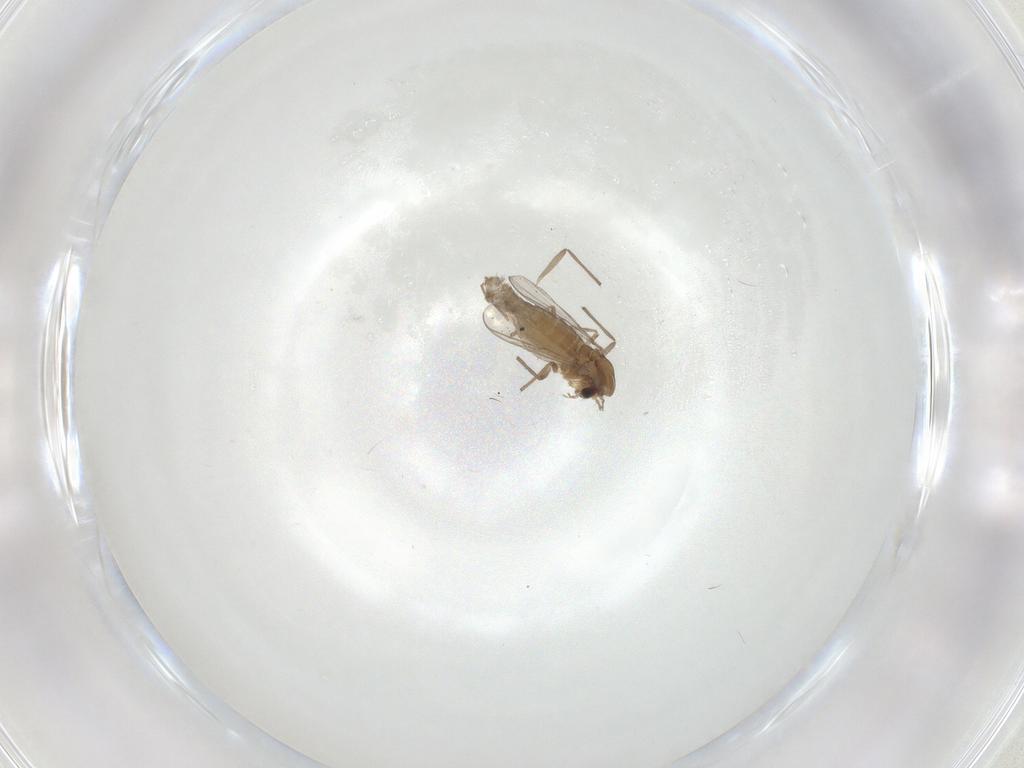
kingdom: Animalia
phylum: Arthropoda
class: Insecta
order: Diptera
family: Chironomidae
